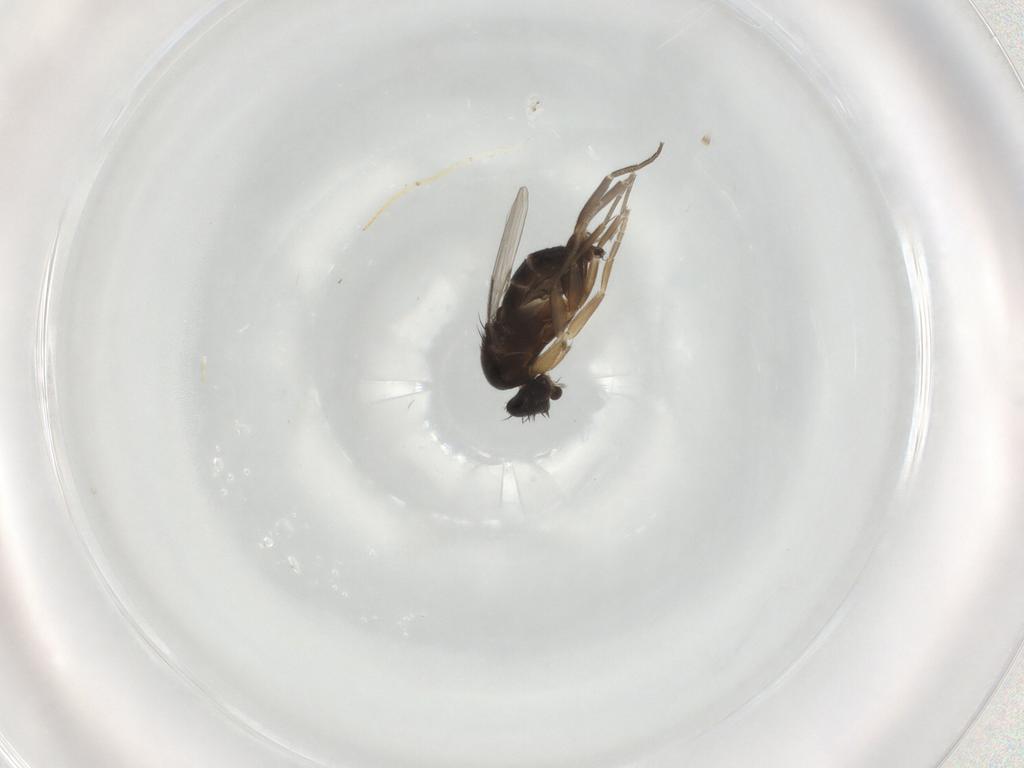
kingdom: Animalia
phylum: Arthropoda
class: Insecta
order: Diptera
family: Phoridae
